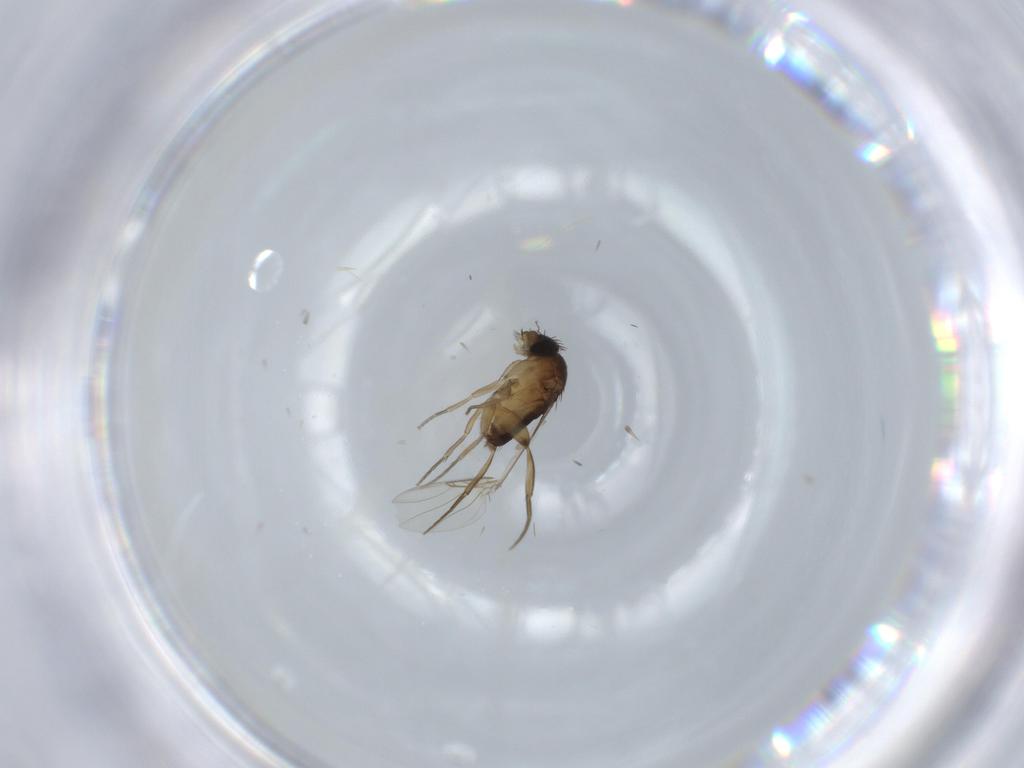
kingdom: Animalia
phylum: Arthropoda
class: Insecta
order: Diptera
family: Phoridae
